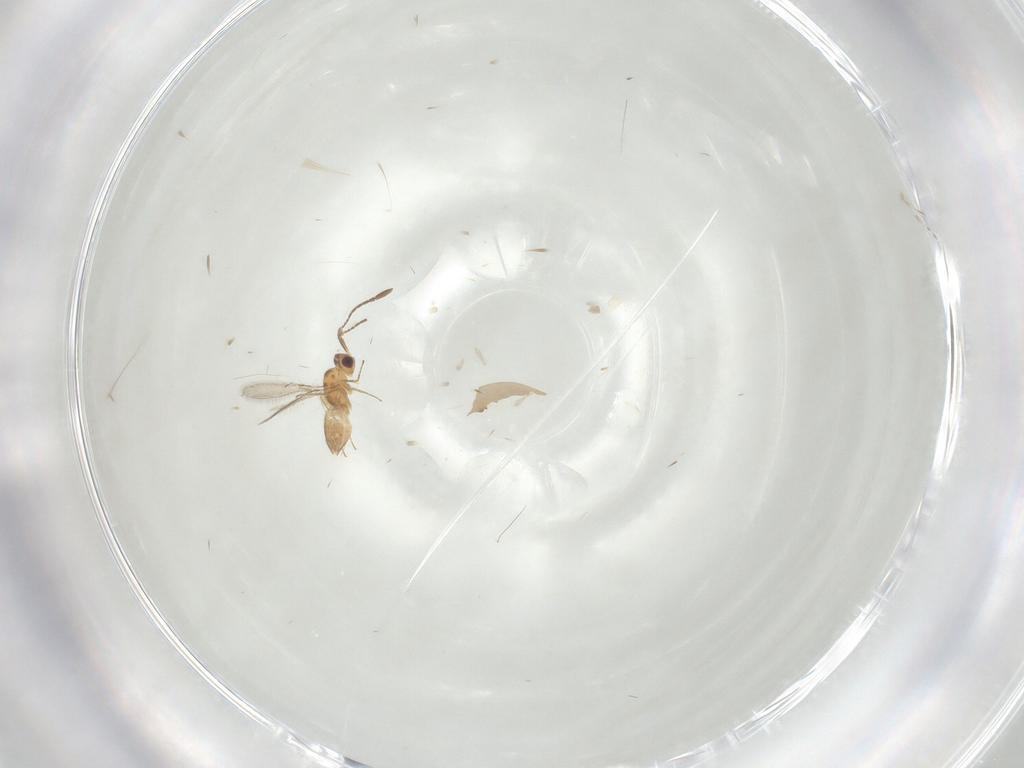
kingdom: Animalia
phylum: Arthropoda
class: Insecta
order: Hymenoptera
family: Mymaridae
